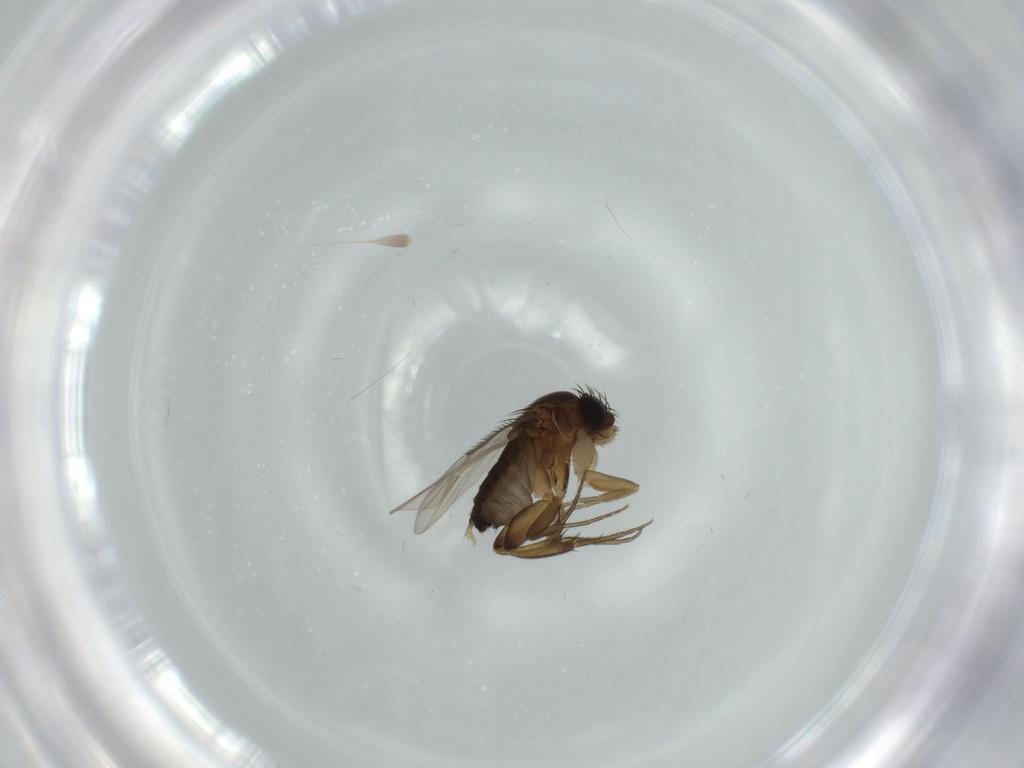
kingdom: Animalia
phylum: Arthropoda
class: Insecta
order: Diptera
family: Phoridae
